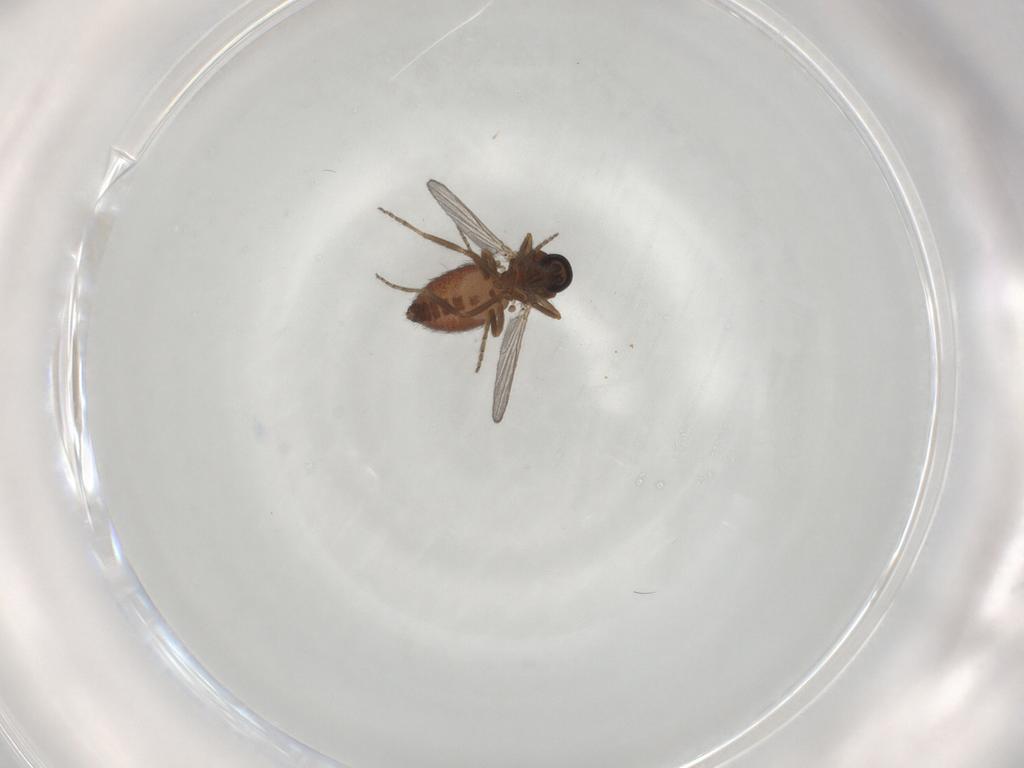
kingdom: Animalia
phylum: Arthropoda
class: Insecta
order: Diptera
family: Ceratopogonidae
